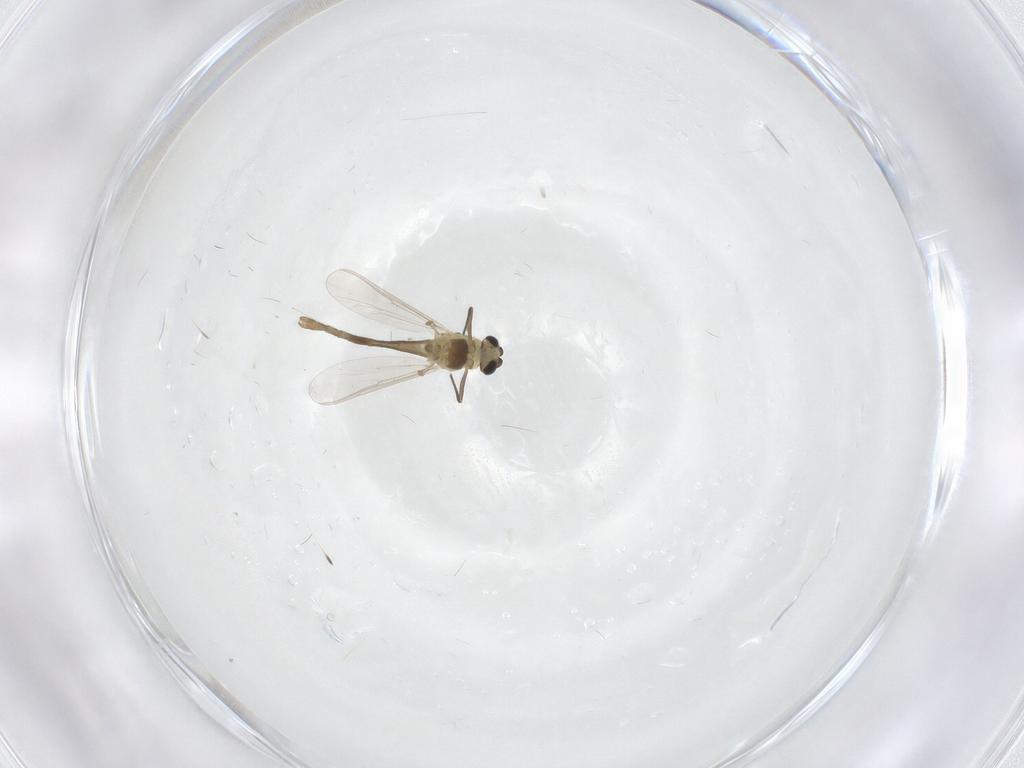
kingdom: Animalia
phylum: Arthropoda
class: Insecta
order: Diptera
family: Chironomidae
